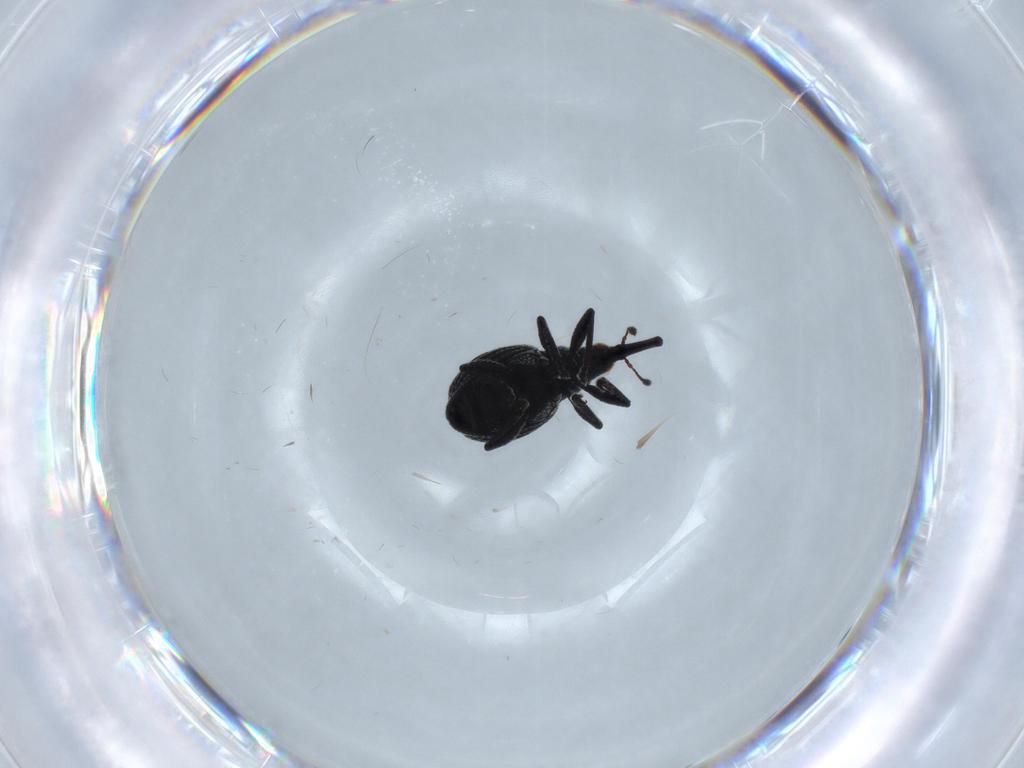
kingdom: Animalia
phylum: Arthropoda
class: Insecta
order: Coleoptera
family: Brentidae
